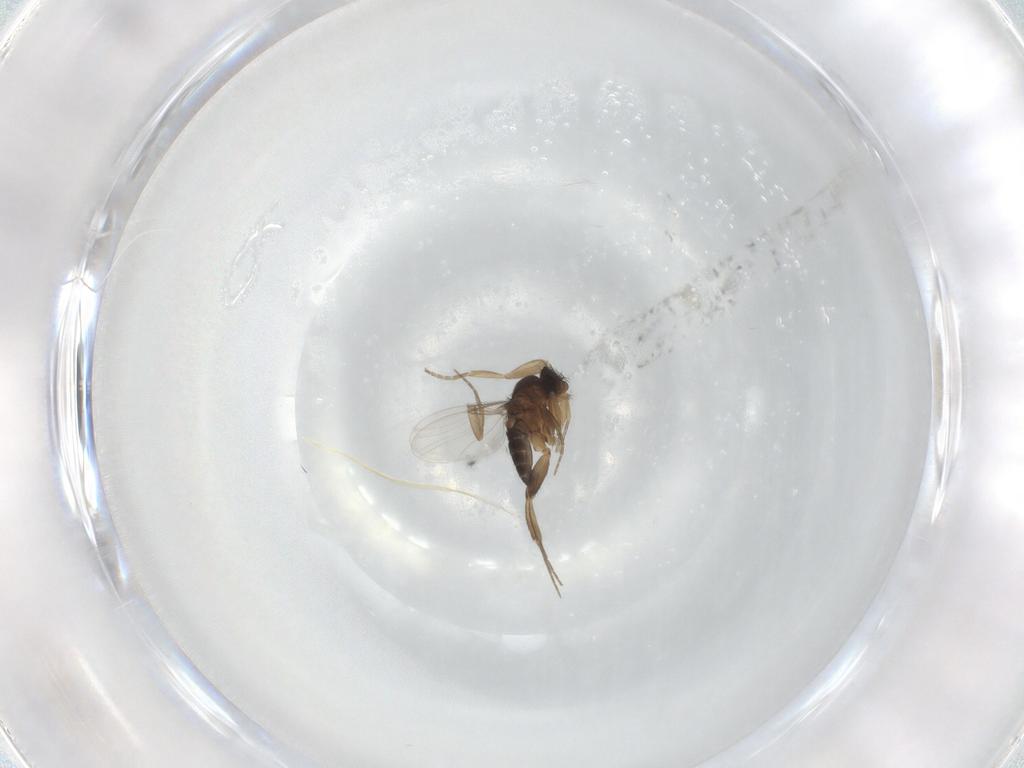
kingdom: Animalia
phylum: Arthropoda
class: Insecta
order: Diptera
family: Phoridae
